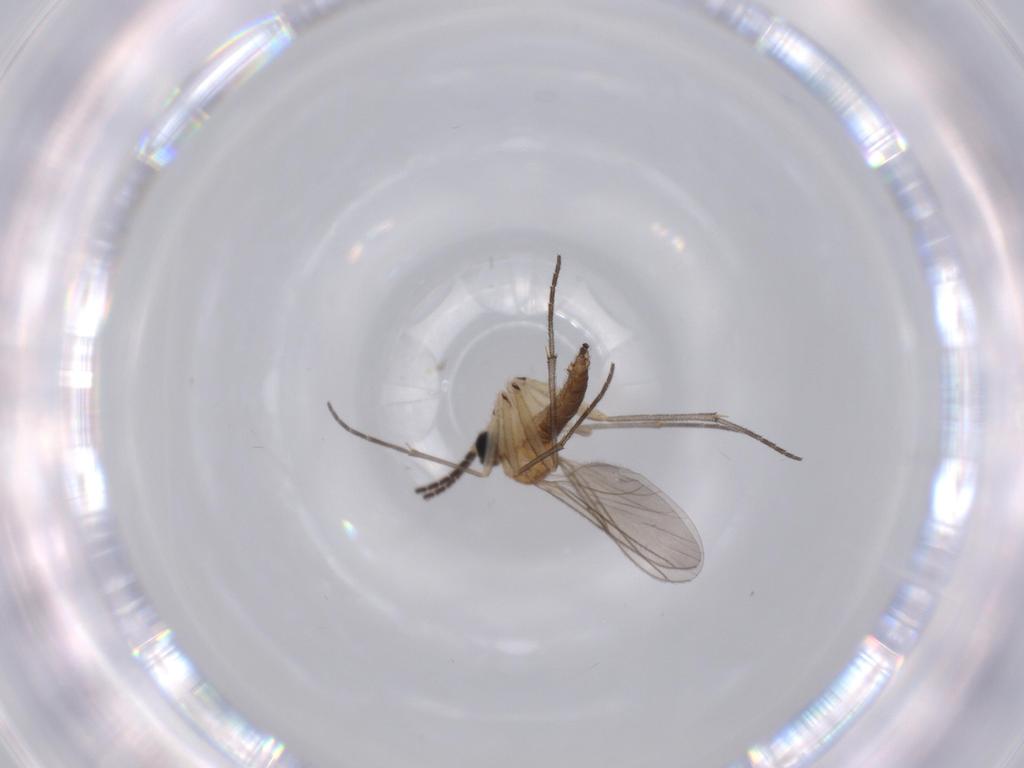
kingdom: Animalia
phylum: Arthropoda
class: Insecta
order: Diptera
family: Sciaridae
